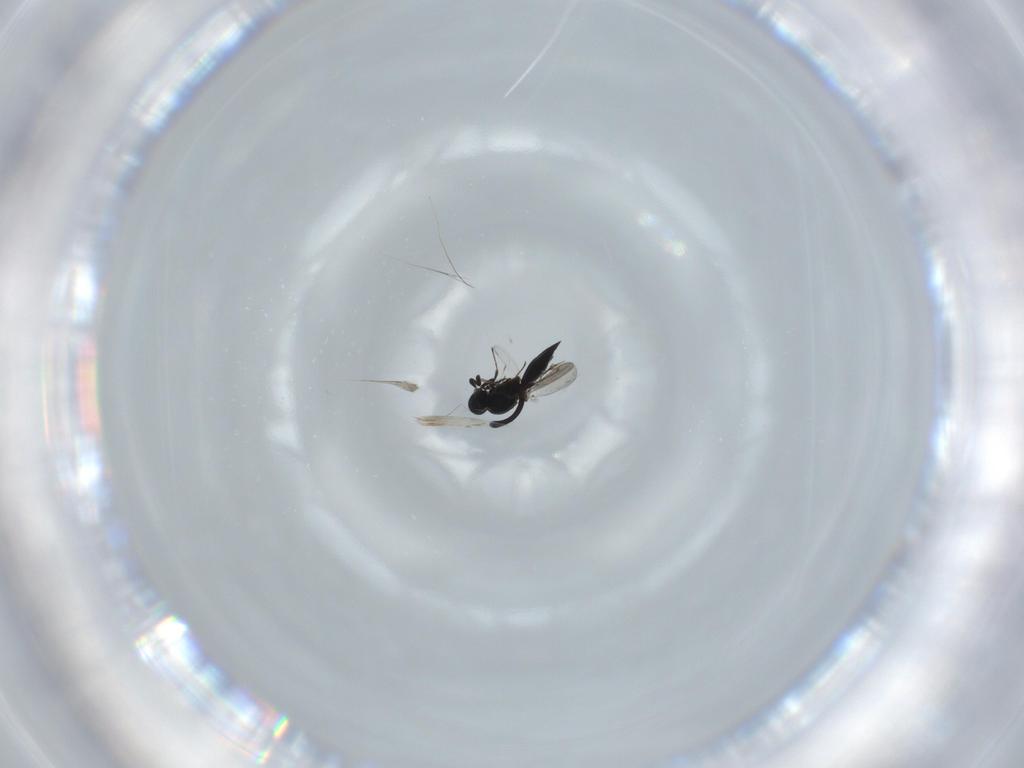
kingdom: Animalia
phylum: Arthropoda
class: Insecta
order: Hymenoptera
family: Platygastridae
